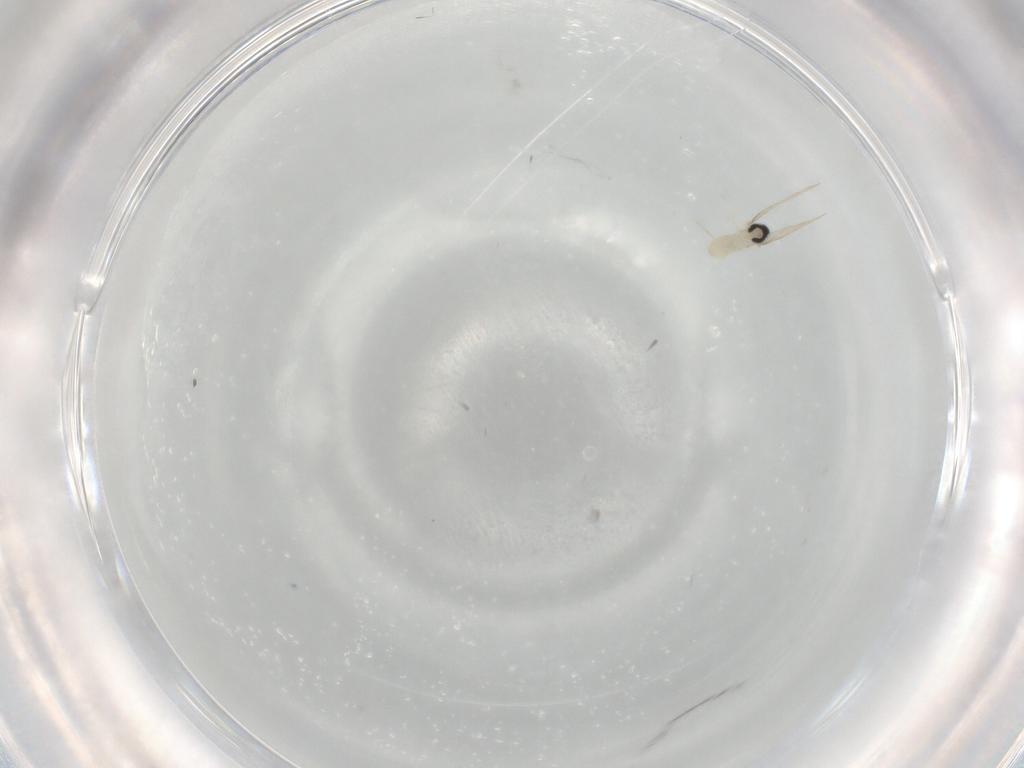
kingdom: Animalia
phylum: Arthropoda
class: Insecta
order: Diptera
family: Cecidomyiidae
